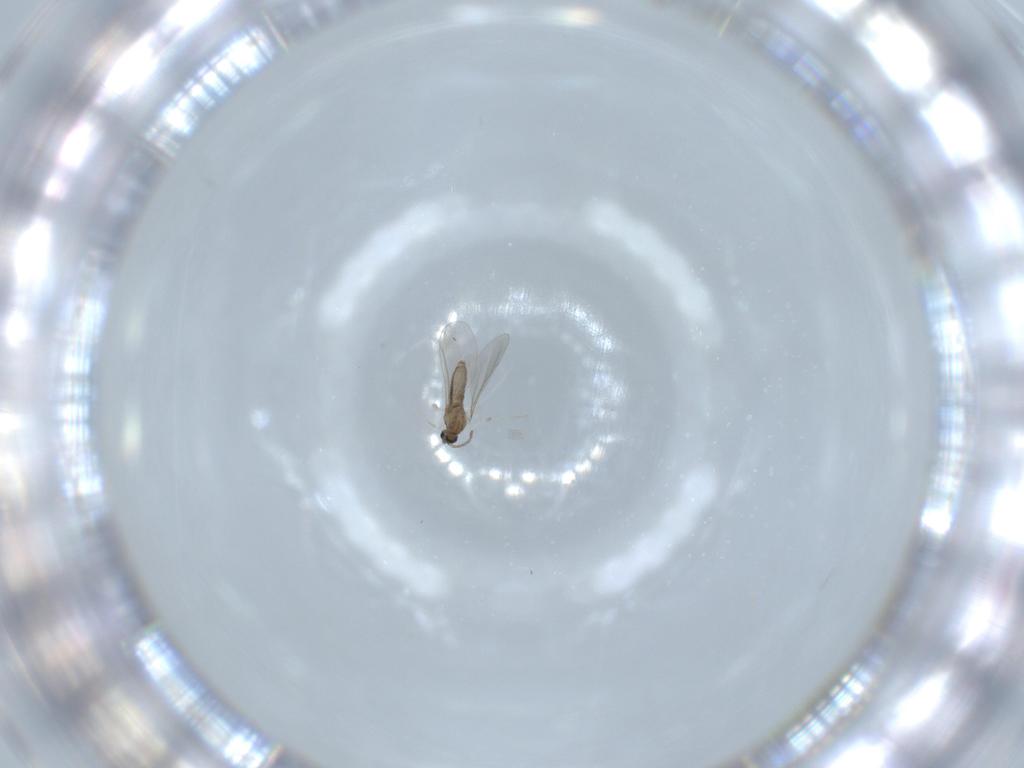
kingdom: Animalia
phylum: Arthropoda
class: Insecta
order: Diptera
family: Cecidomyiidae
